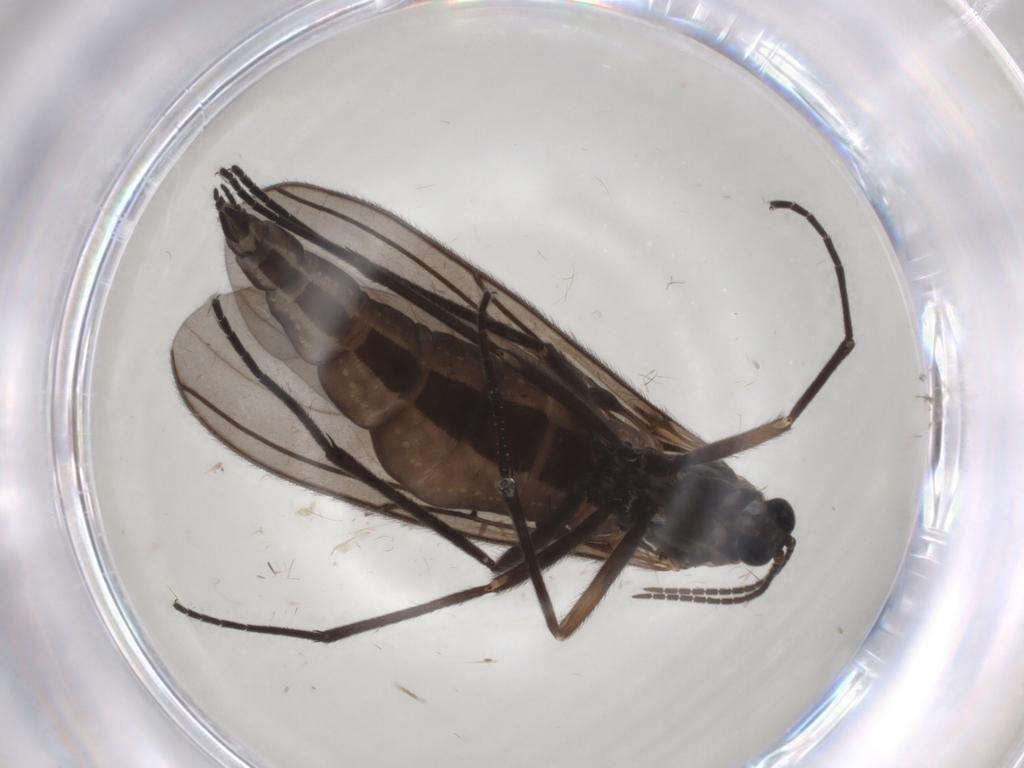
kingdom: Animalia
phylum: Arthropoda
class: Insecta
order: Diptera
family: Sciaridae
